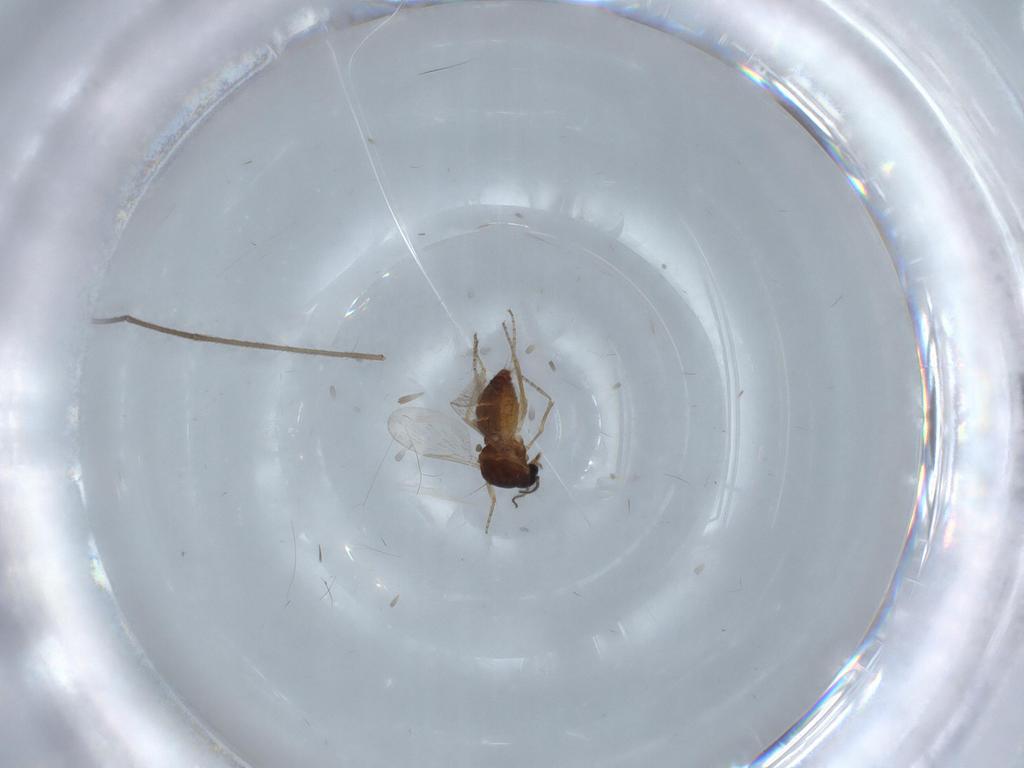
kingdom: Animalia
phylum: Arthropoda
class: Insecta
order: Diptera
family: Ceratopogonidae
